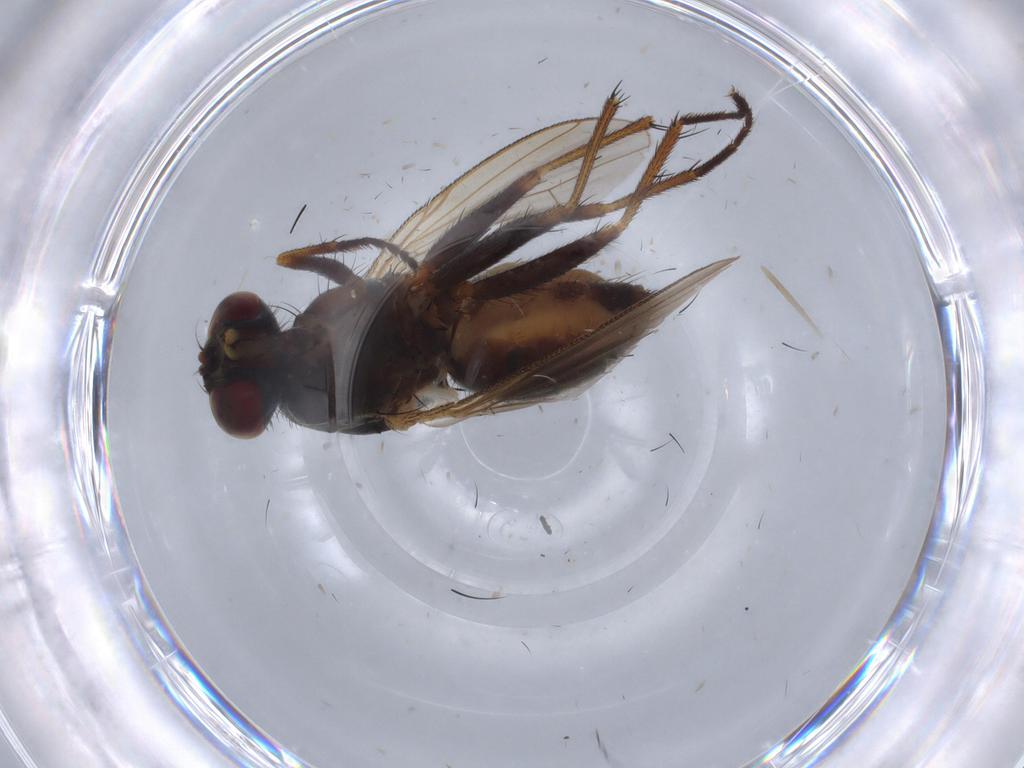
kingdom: Animalia
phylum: Arthropoda
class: Insecta
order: Diptera
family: Muscidae
